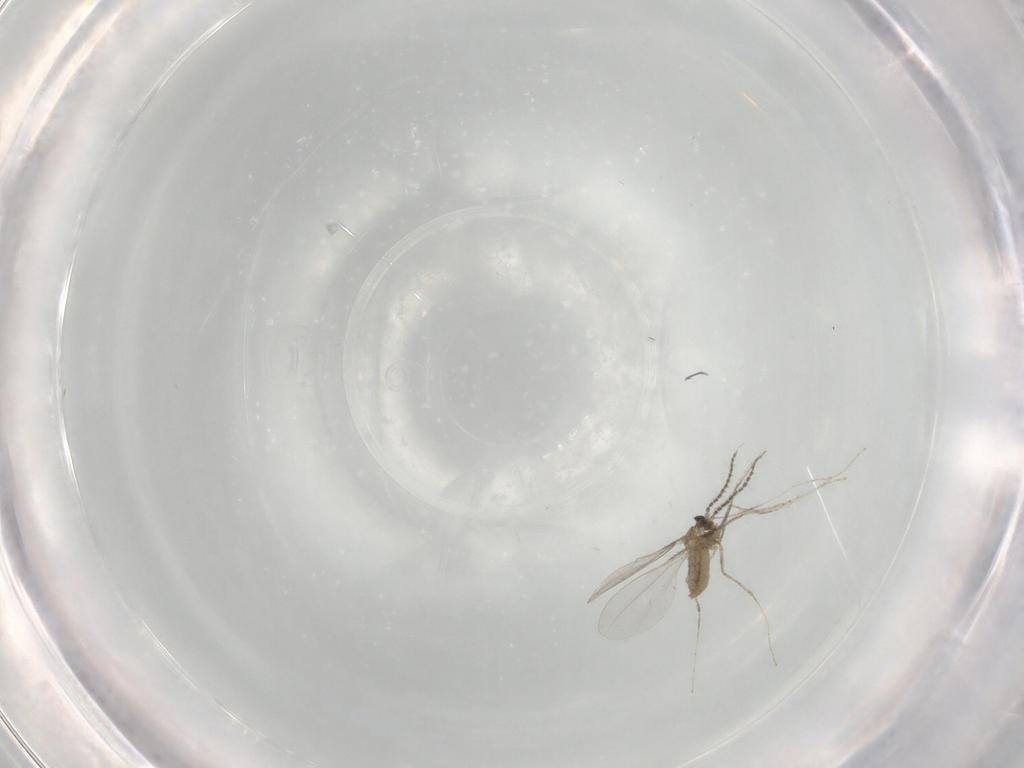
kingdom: Animalia
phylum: Arthropoda
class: Insecta
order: Diptera
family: Cecidomyiidae
